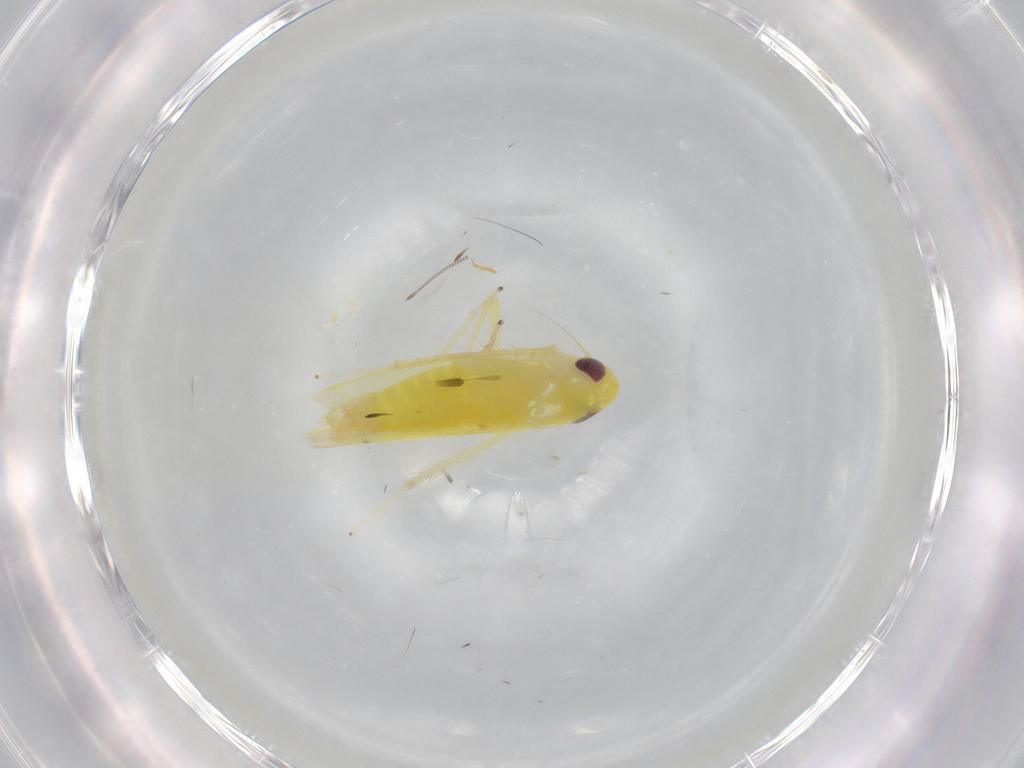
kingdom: Animalia
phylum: Arthropoda
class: Insecta
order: Hemiptera
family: Cicadellidae
